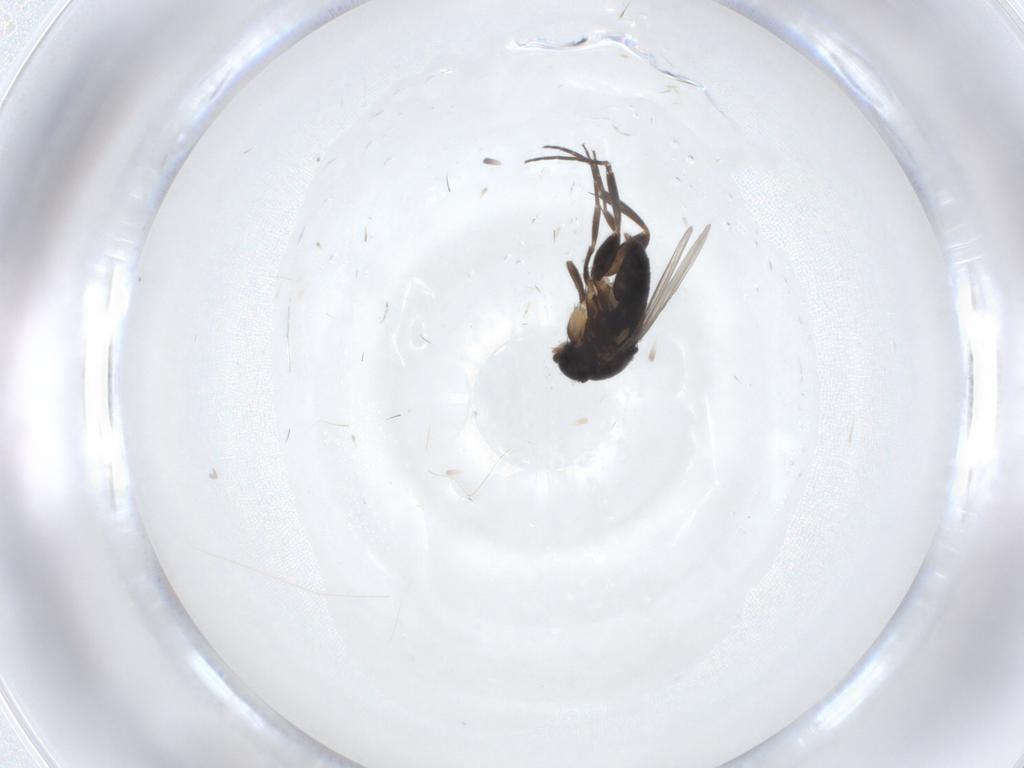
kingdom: Animalia
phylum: Arthropoda
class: Insecta
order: Diptera
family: Phoridae
